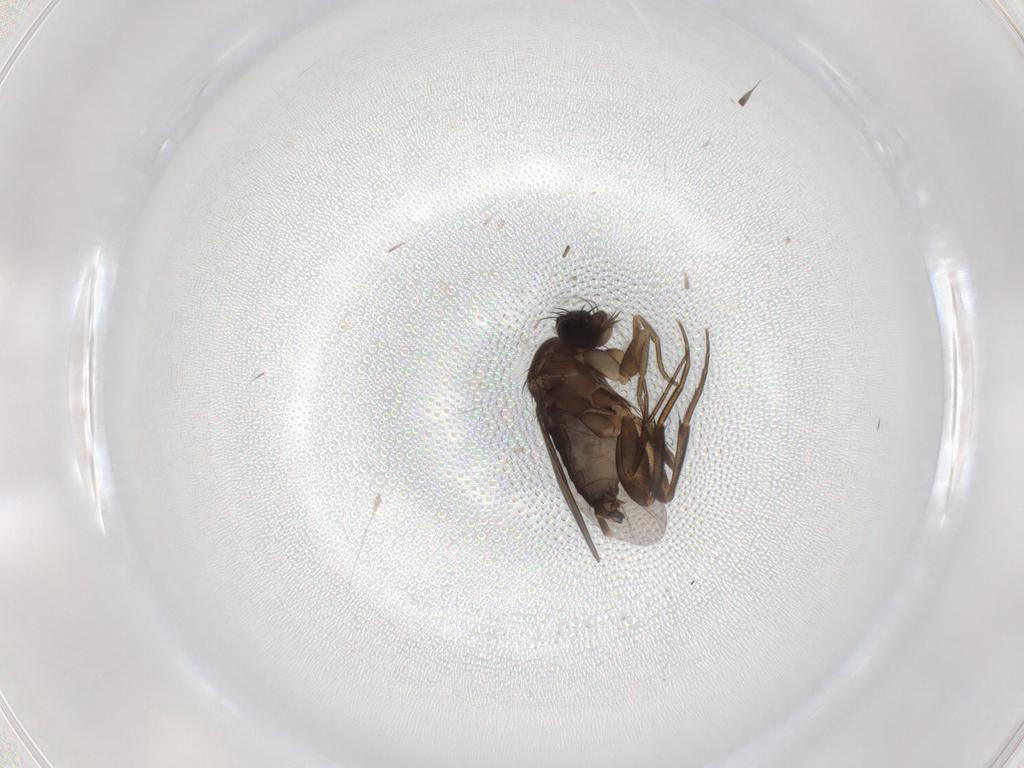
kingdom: Animalia
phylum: Arthropoda
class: Insecta
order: Diptera
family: Phoridae
